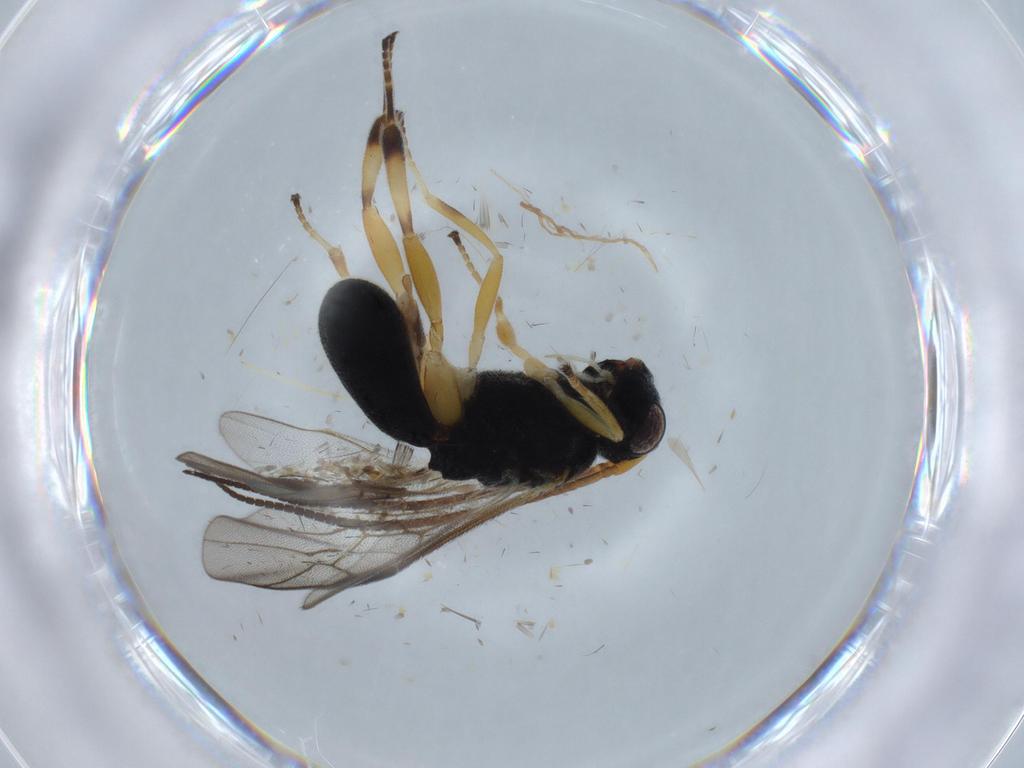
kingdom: Animalia
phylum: Arthropoda
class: Insecta
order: Hymenoptera
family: Braconidae
